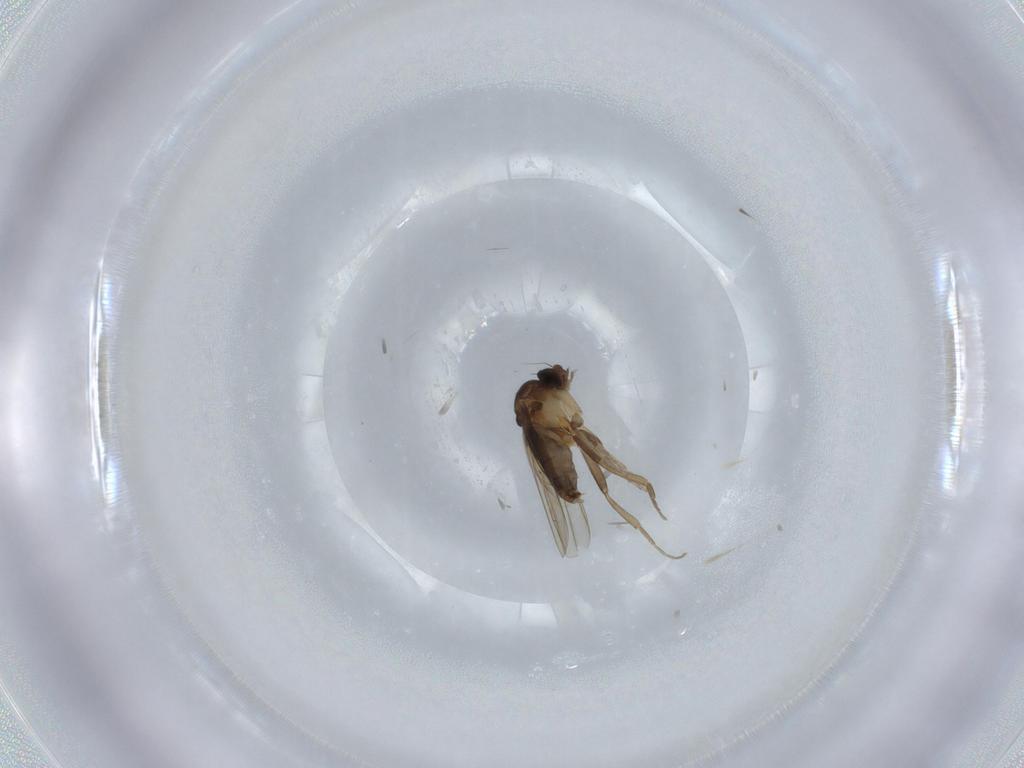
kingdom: Animalia
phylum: Arthropoda
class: Insecta
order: Diptera
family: Phoridae
